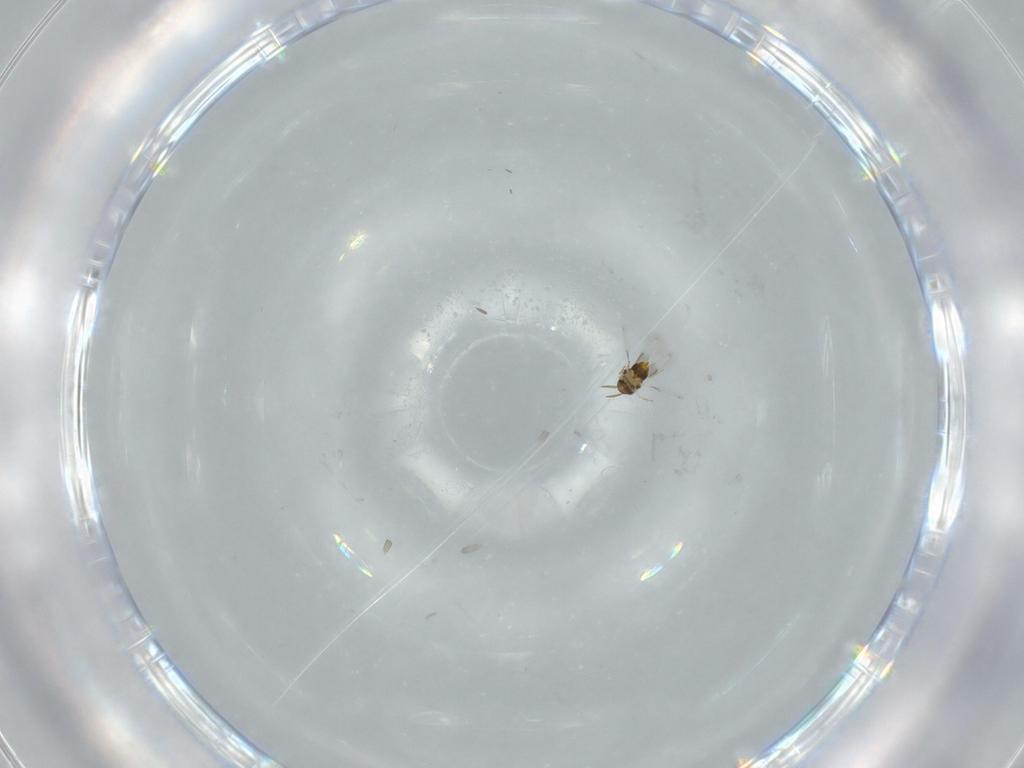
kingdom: Animalia
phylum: Arthropoda
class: Insecta
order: Hymenoptera
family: Aphelinidae
